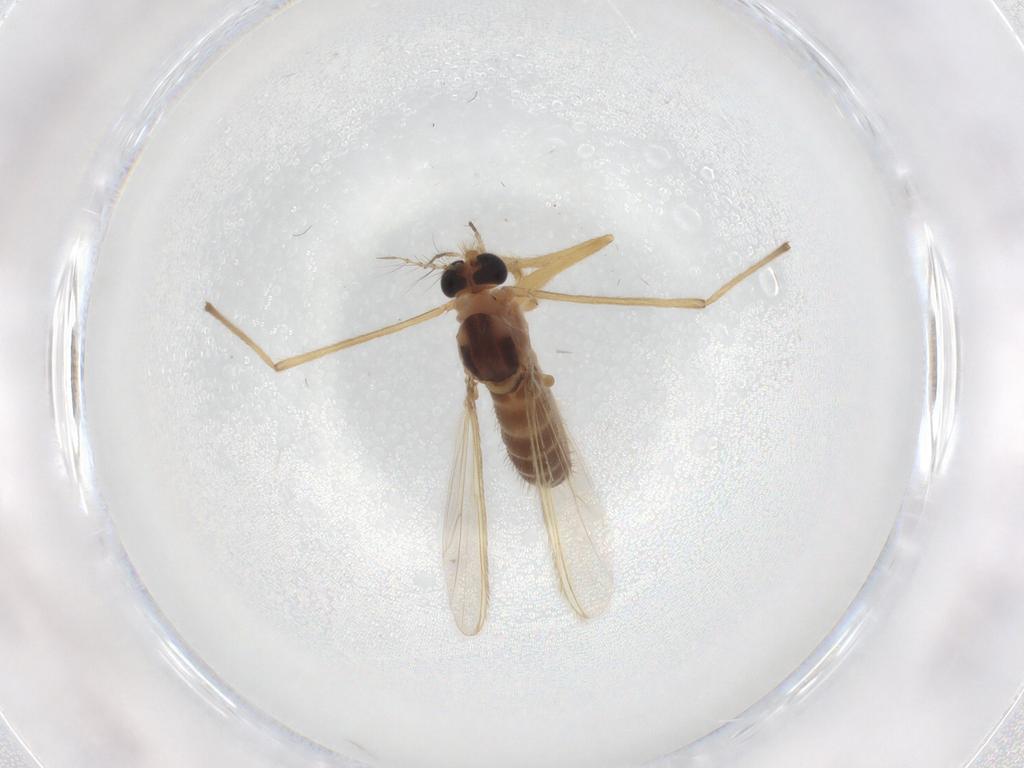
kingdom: Animalia
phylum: Arthropoda
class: Insecta
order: Diptera
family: Chironomidae
